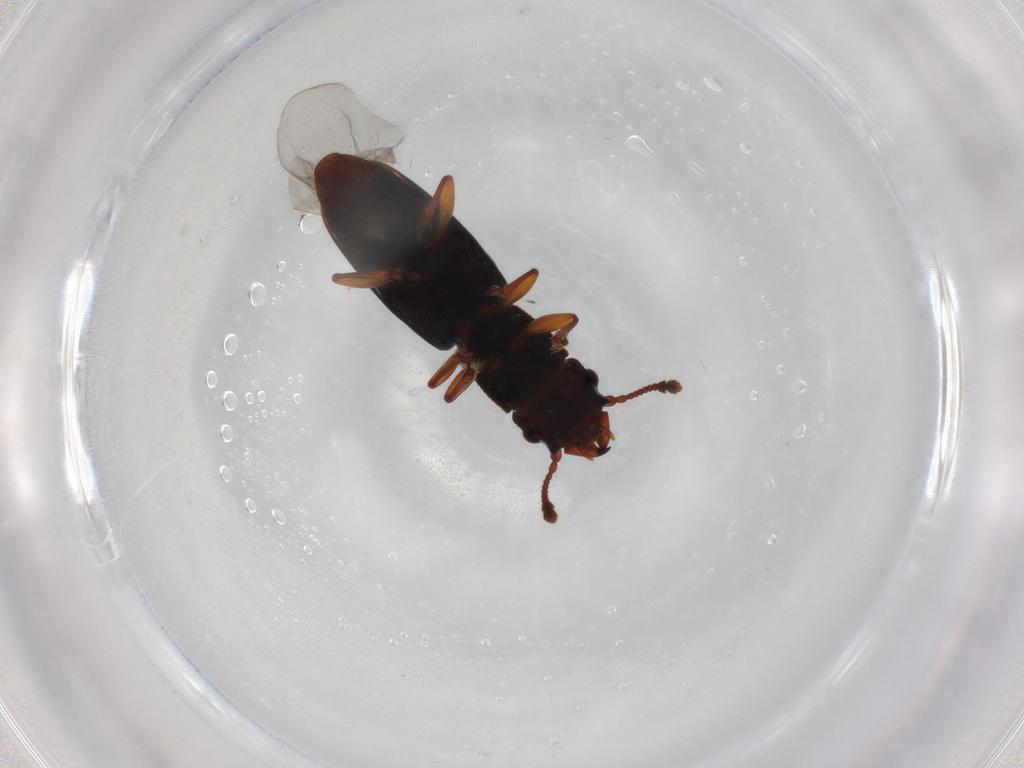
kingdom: Animalia
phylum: Arthropoda
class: Insecta
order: Coleoptera
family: Monotomidae
